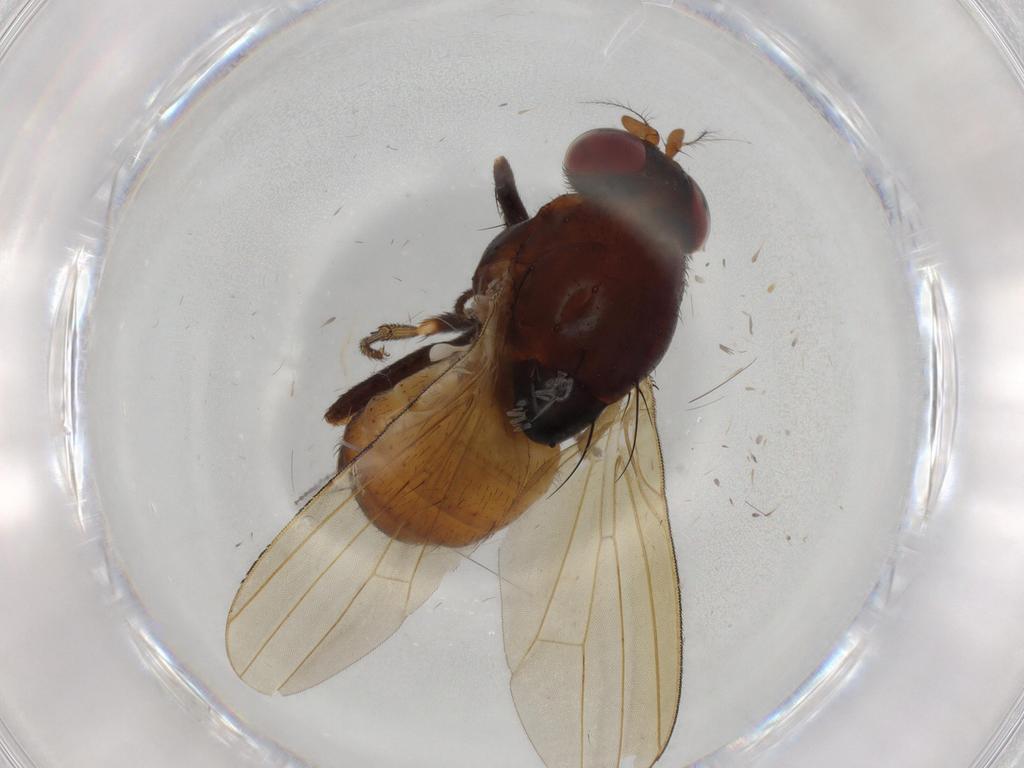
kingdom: Animalia
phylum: Arthropoda
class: Insecta
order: Diptera
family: Lauxaniidae
